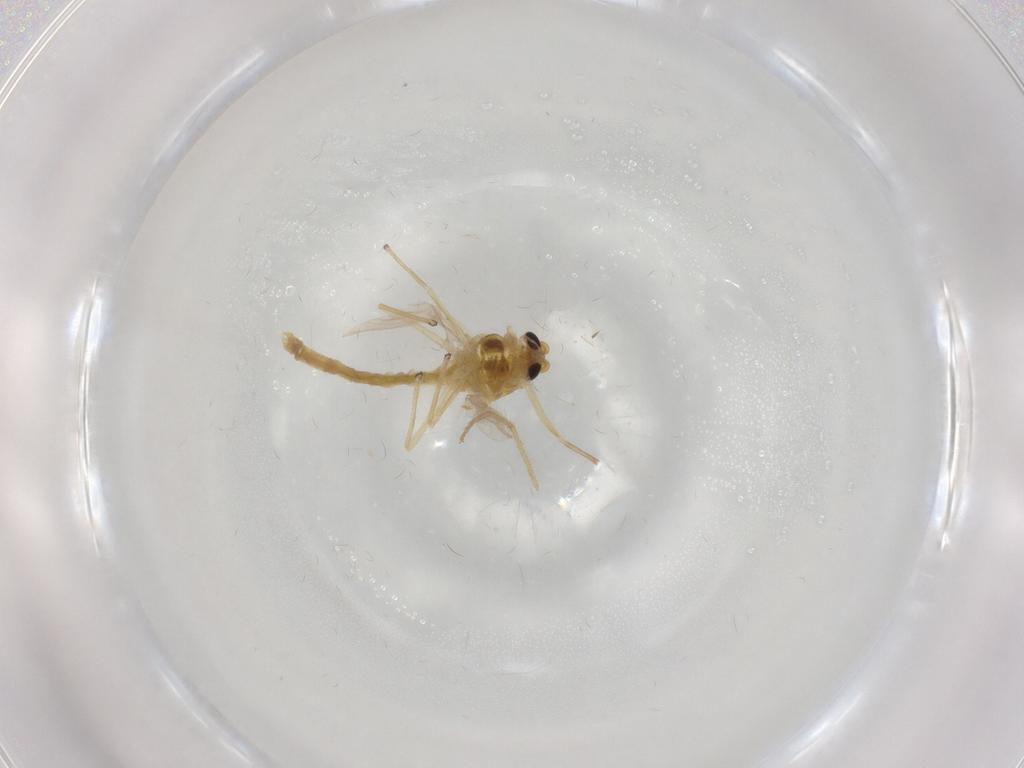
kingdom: Animalia
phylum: Arthropoda
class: Insecta
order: Diptera
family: Chironomidae
